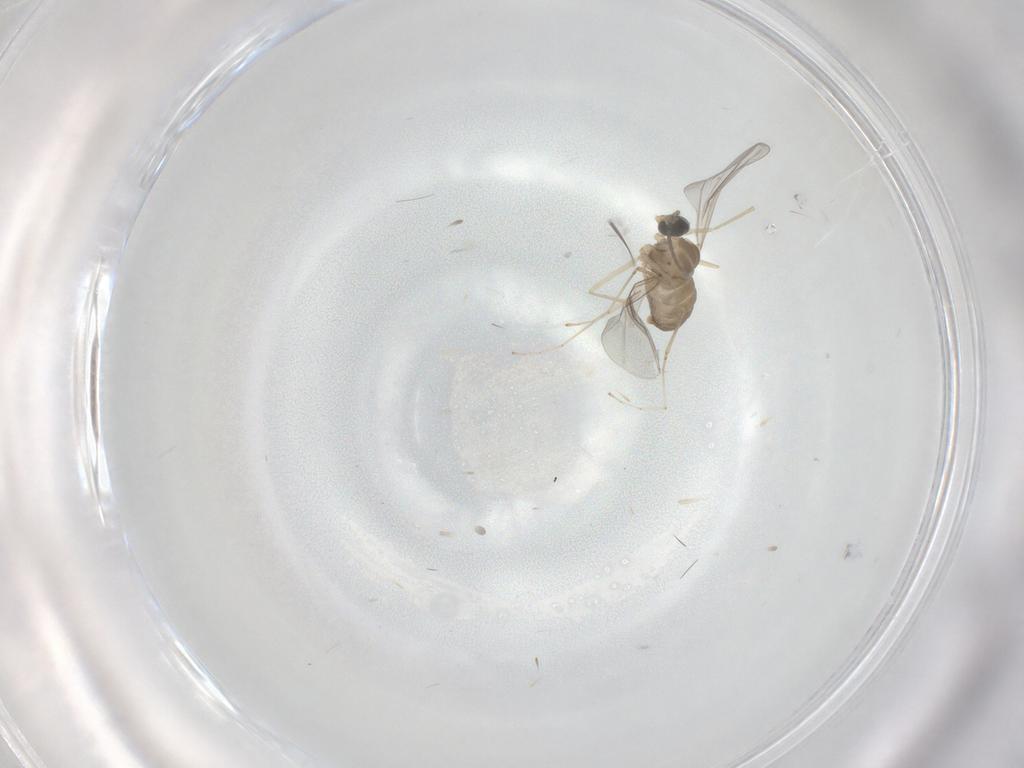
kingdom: Animalia
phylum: Arthropoda
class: Insecta
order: Diptera
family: Cecidomyiidae
